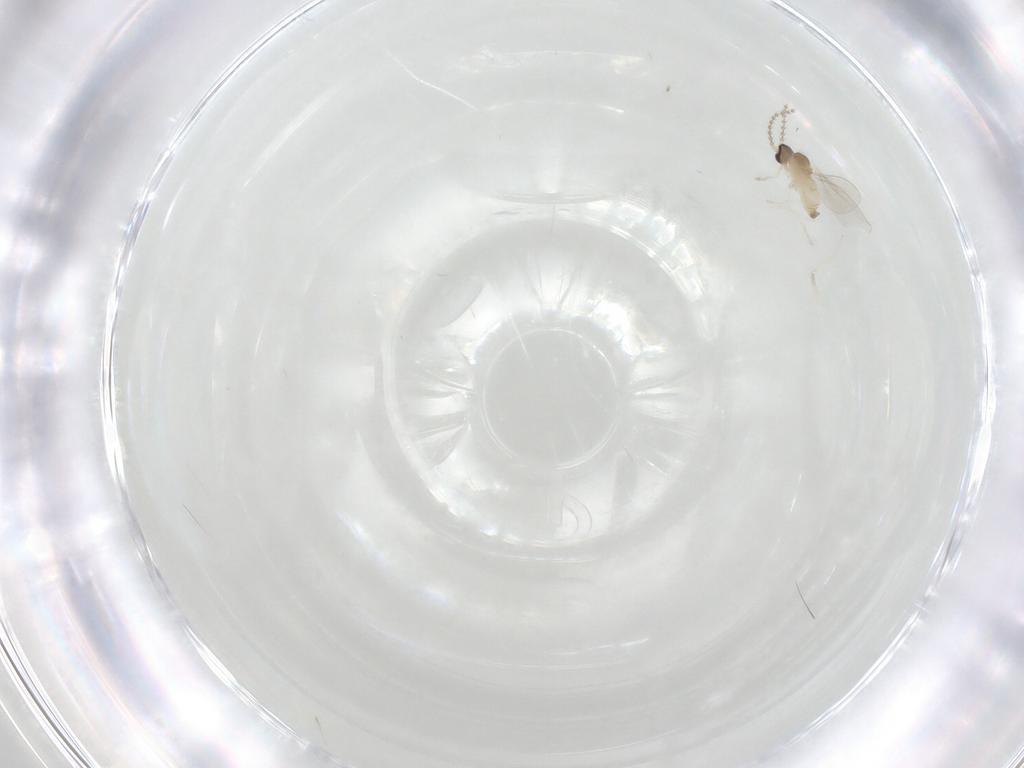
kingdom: Animalia
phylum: Arthropoda
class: Insecta
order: Diptera
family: Cecidomyiidae
